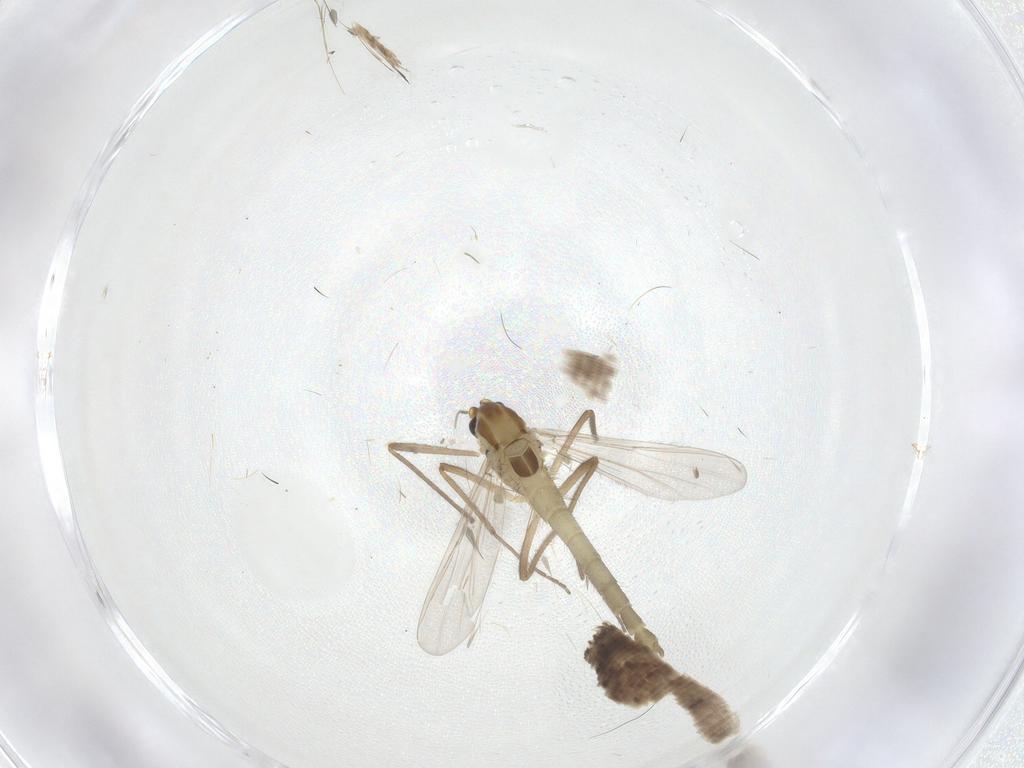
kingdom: Animalia
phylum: Arthropoda
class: Insecta
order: Diptera
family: Chironomidae
